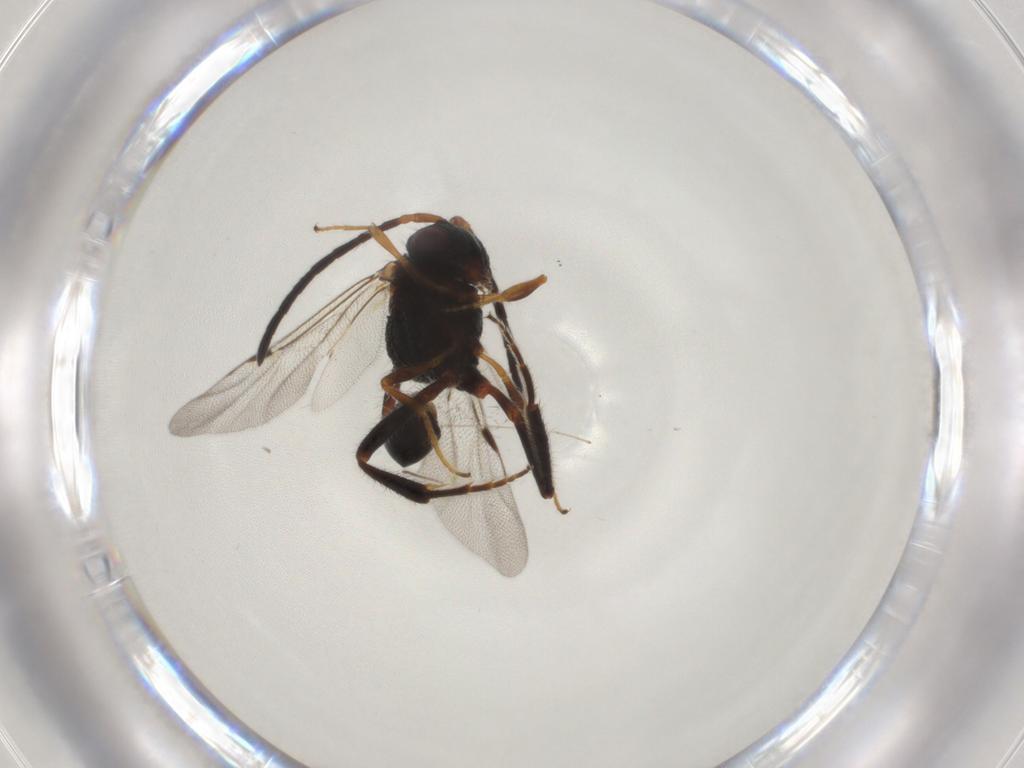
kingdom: Animalia
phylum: Arthropoda
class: Insecta
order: Hymenoptera
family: Evaniidae
